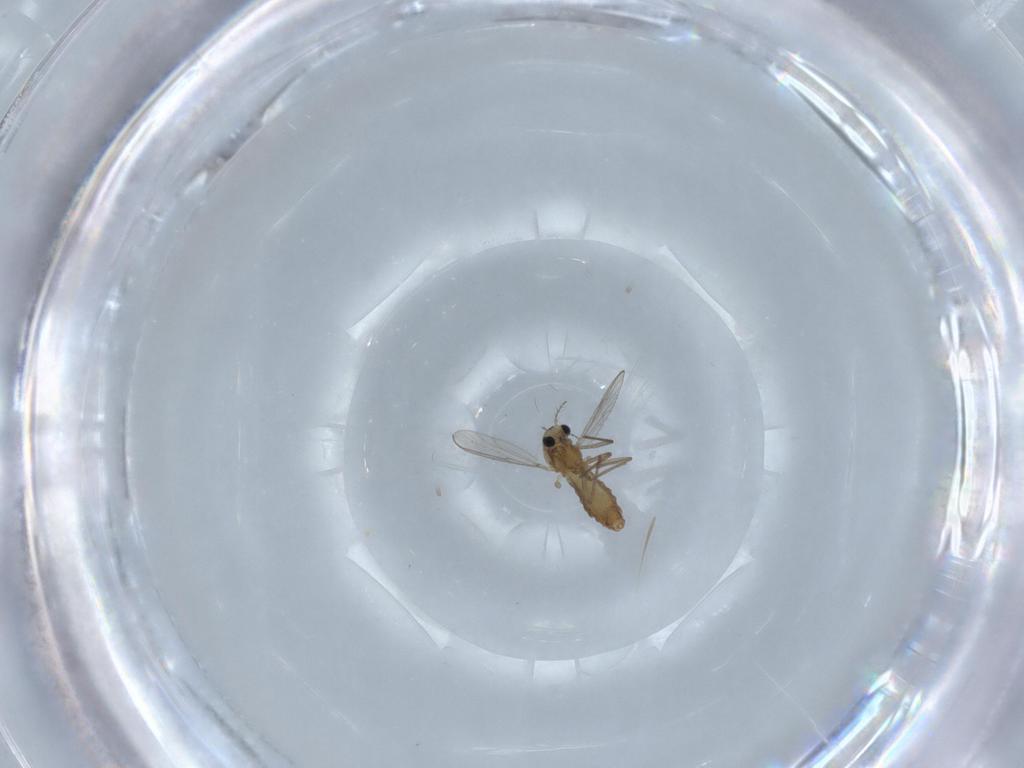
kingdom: Animalia
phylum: Arthropoda
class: Insecta
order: Diptera
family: Chironomidae
